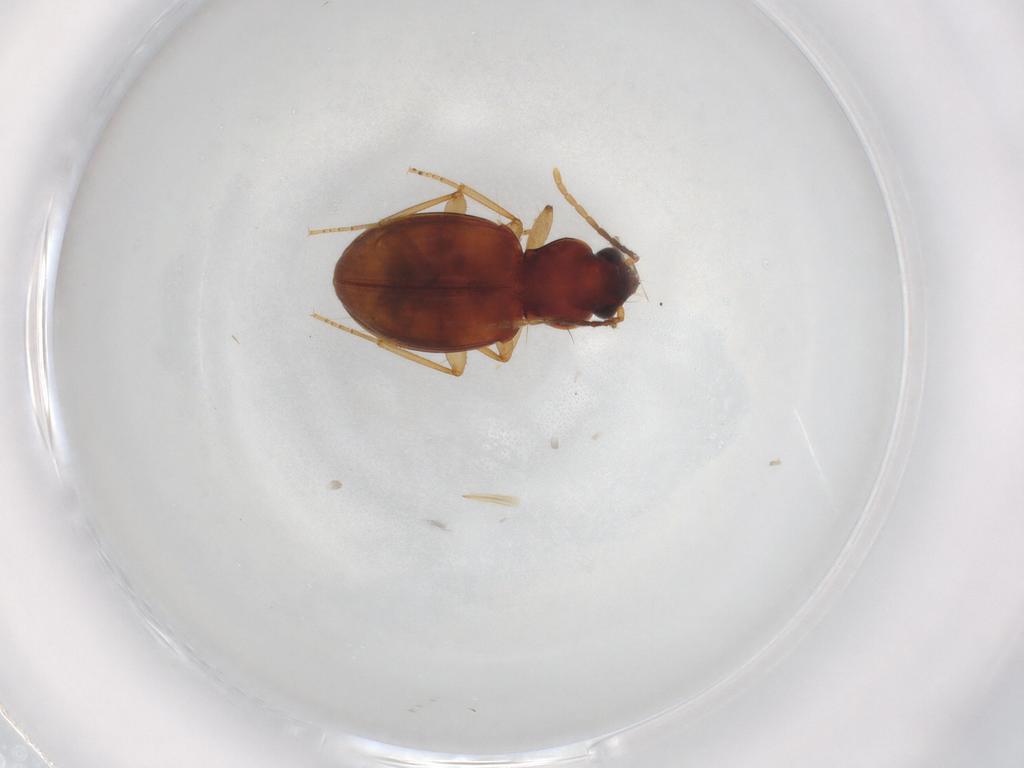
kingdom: Animalia
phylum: Arthropoda
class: Insecta
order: Coleoptera
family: Carabidae
